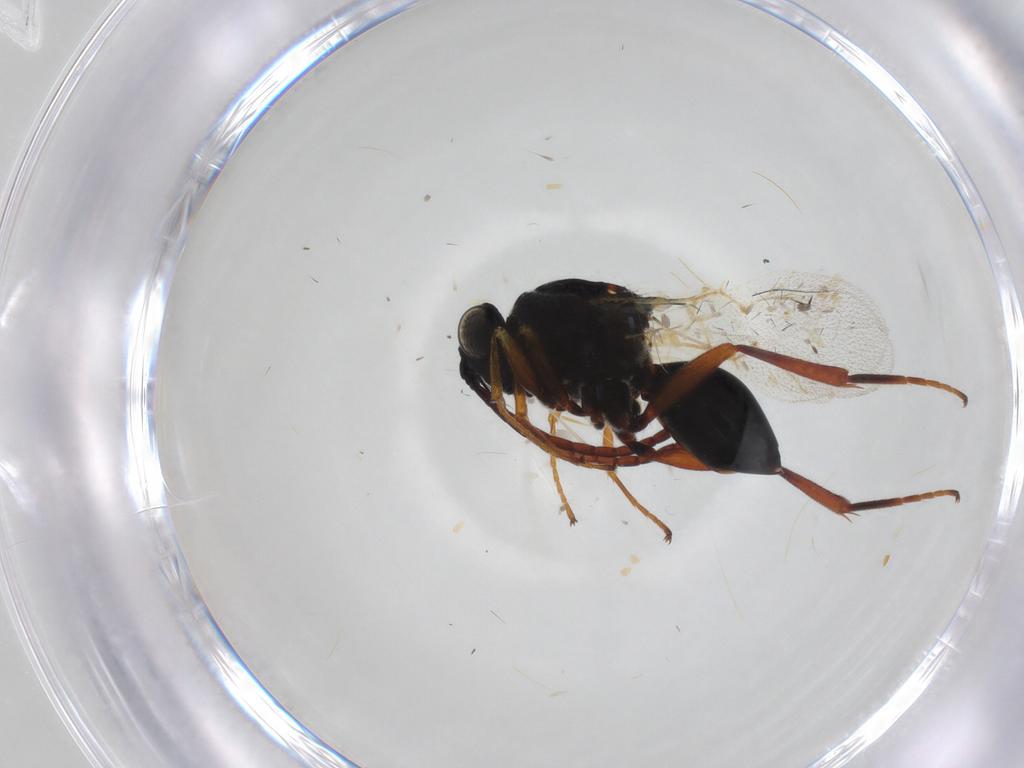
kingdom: Animalia
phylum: Arthropoda
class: Insecta
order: Hymenoptera
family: Figitidae
